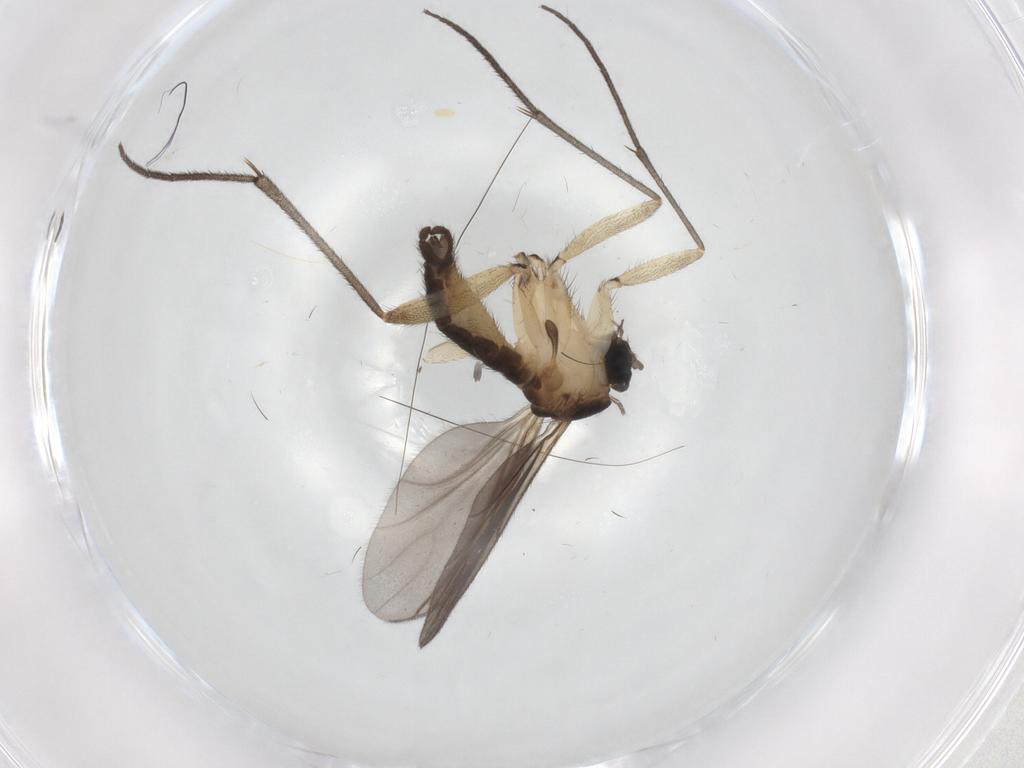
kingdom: Animalia
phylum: Arthropoda
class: Insecta
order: Diptera
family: Sciaridae
